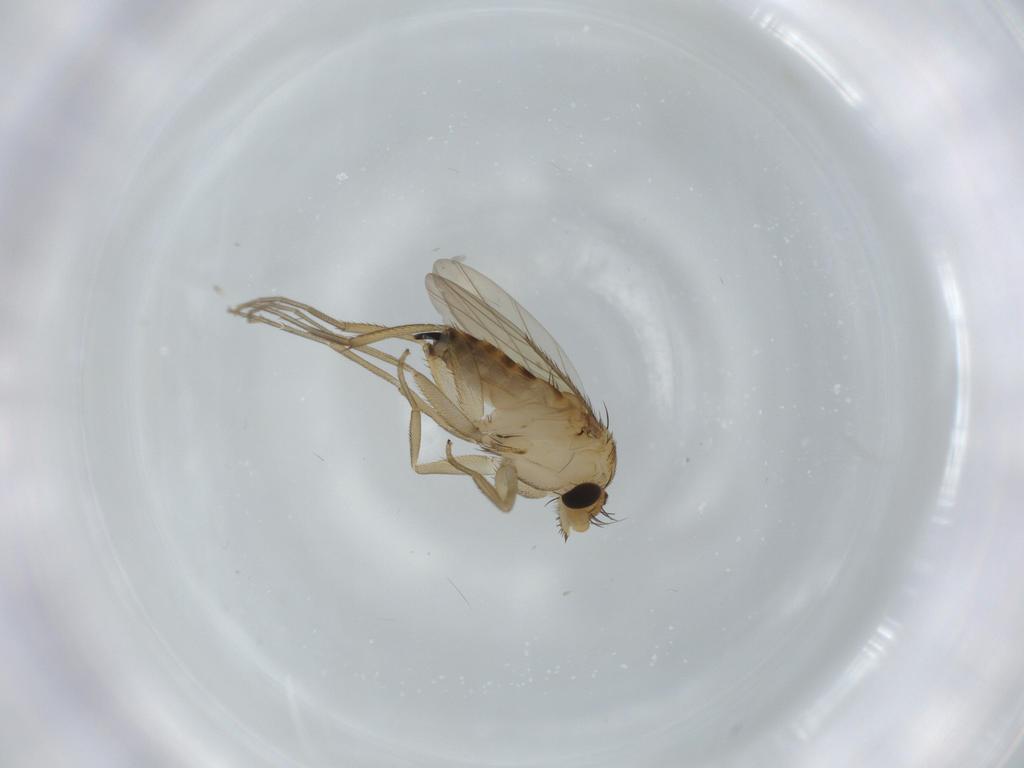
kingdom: Animalia
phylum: Arthropoda
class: Insecta
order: Diptera
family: Phoridae
